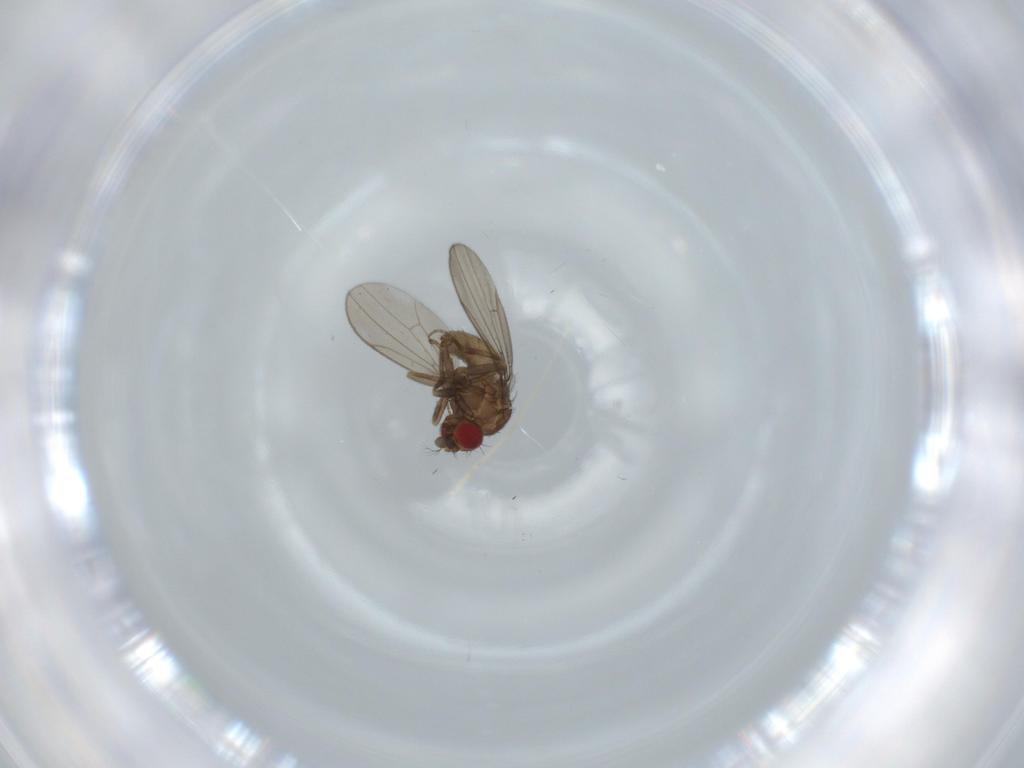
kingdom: Animalia
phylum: Arthropoda
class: Insecta
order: Diptera
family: Drosophilidae
